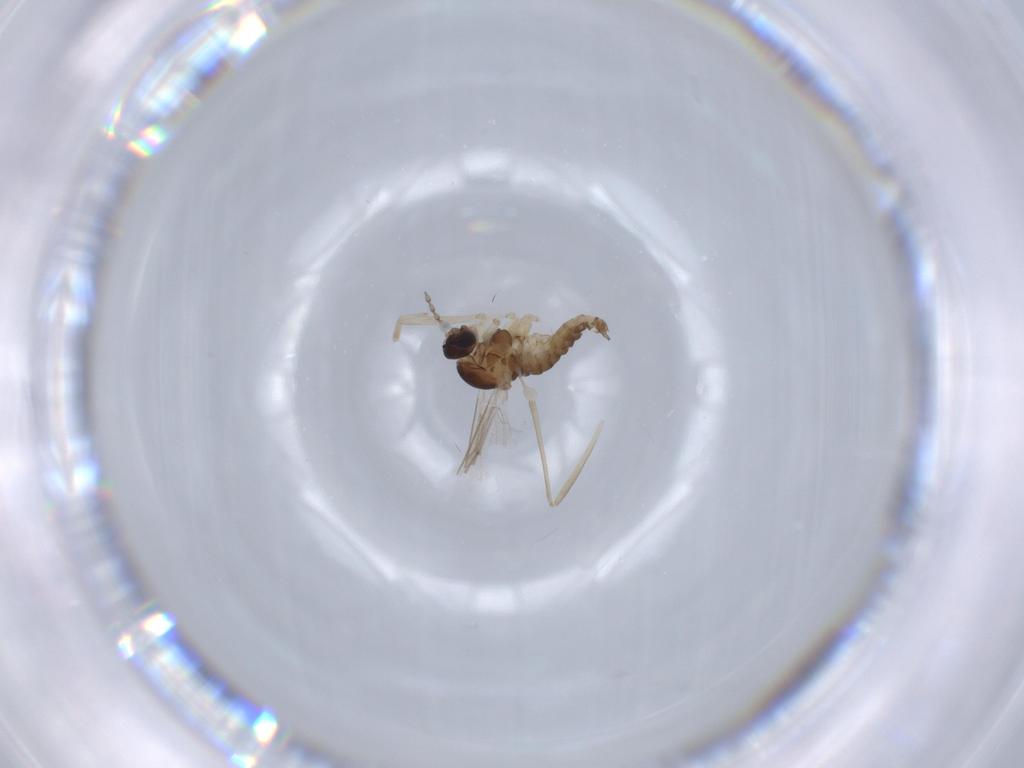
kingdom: Animalia
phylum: Arthropoda
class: Insecta
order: Diptera
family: Cecidomyiidae
